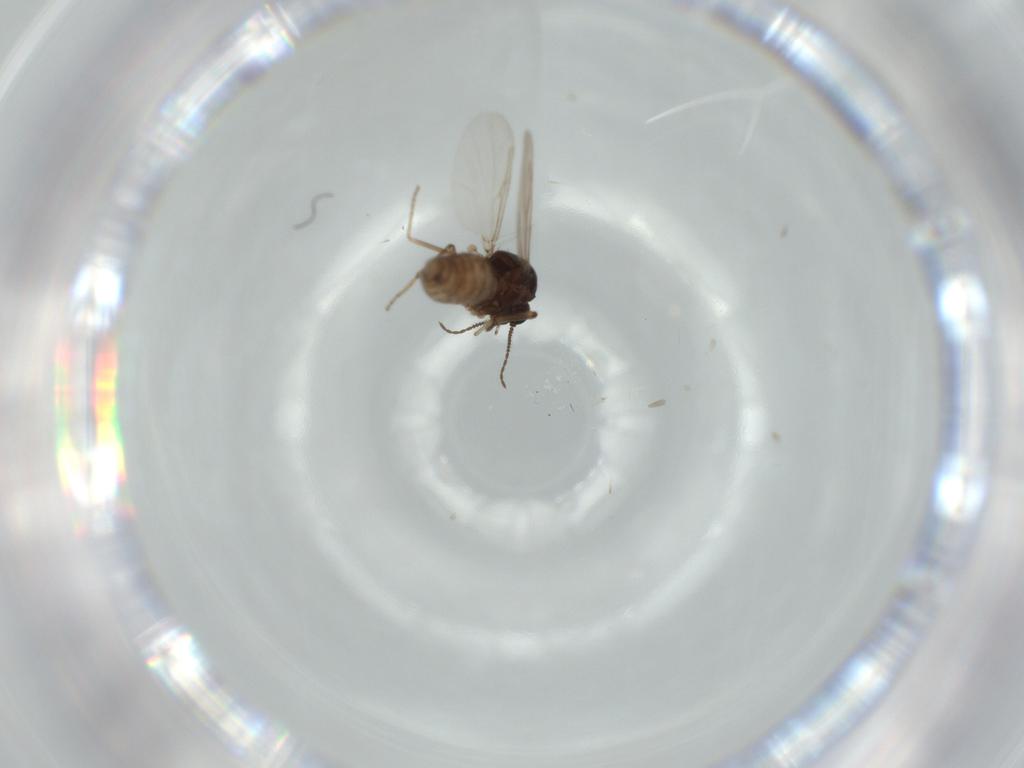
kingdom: Animalia
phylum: Arthropoda
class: Insecta
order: Diptera
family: Ceratopogonidae
